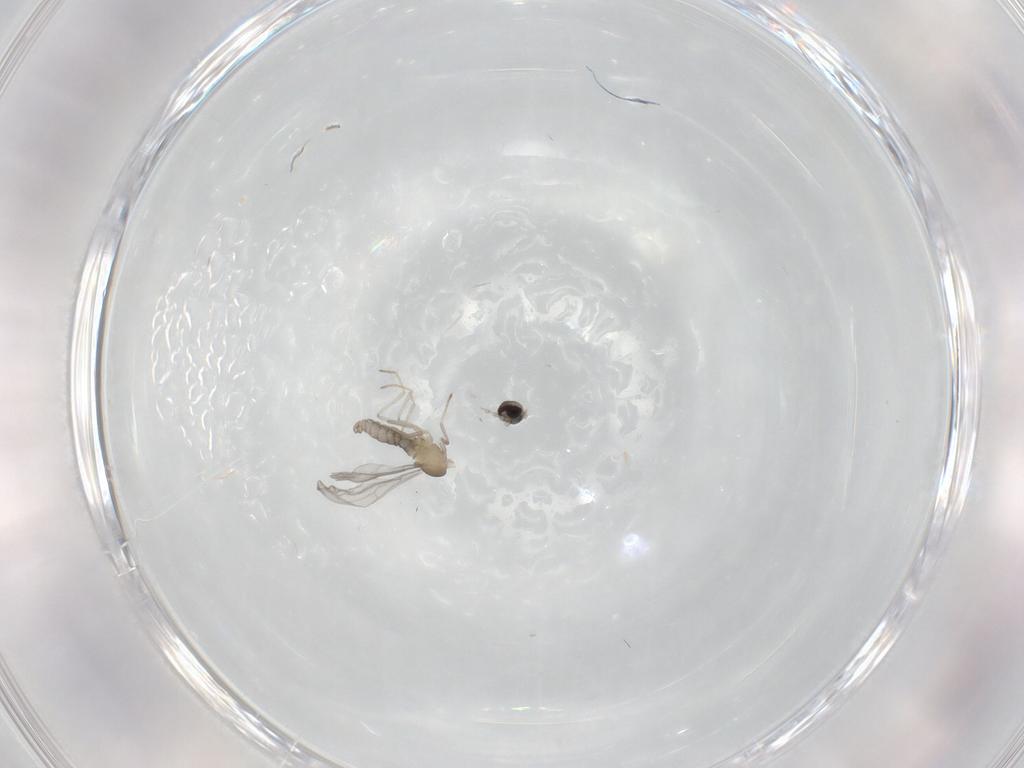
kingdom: Animalia
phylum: Arthropoda
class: Insecta
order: Diptera
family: Cecidomyiidae
